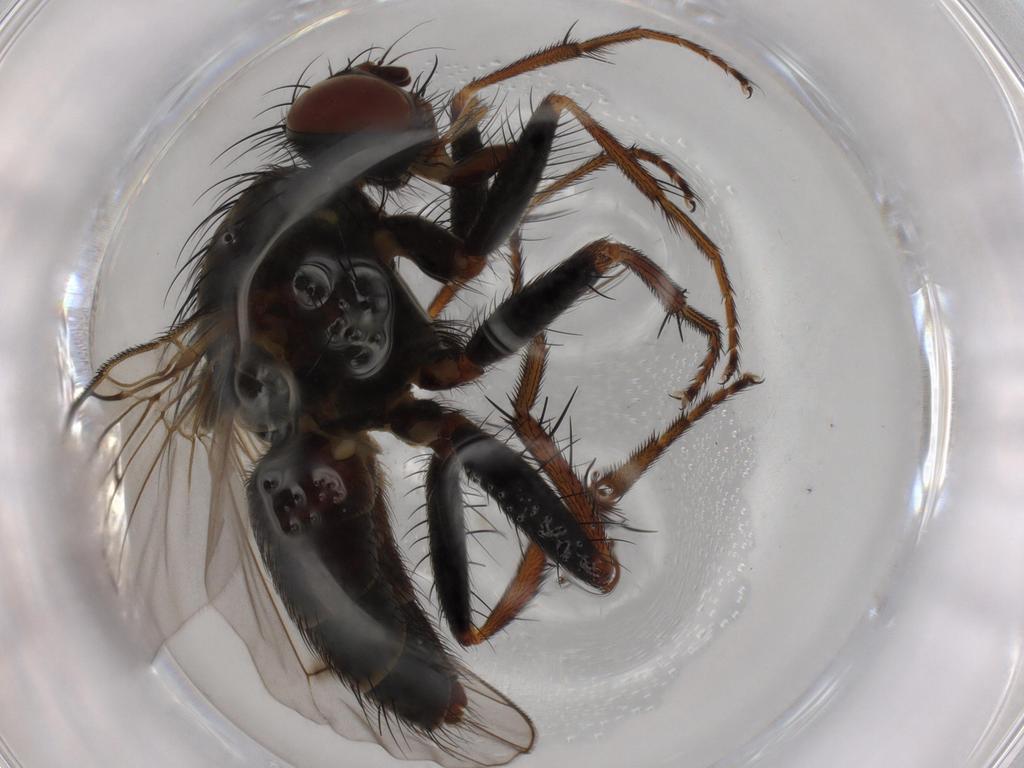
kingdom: Animalia
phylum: Arthropoda
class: Insecta
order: Diptera
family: Muscidae
